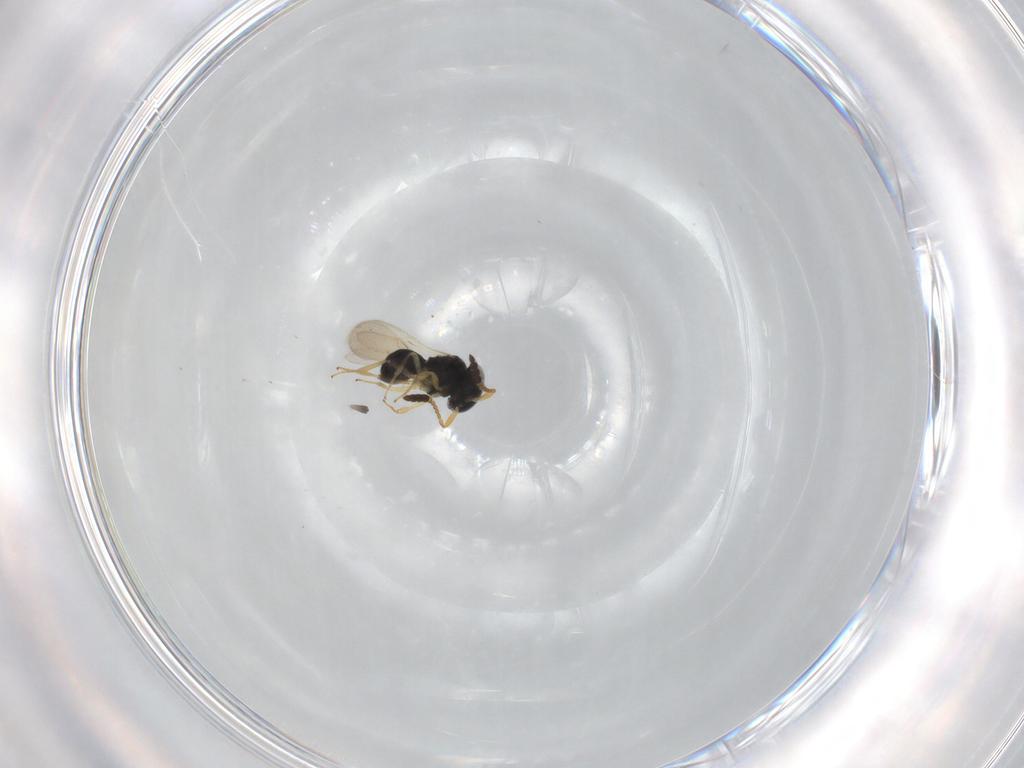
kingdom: Animalia
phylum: Arthropoda
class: Insecta
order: Hymenoptera
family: Scelionidae
